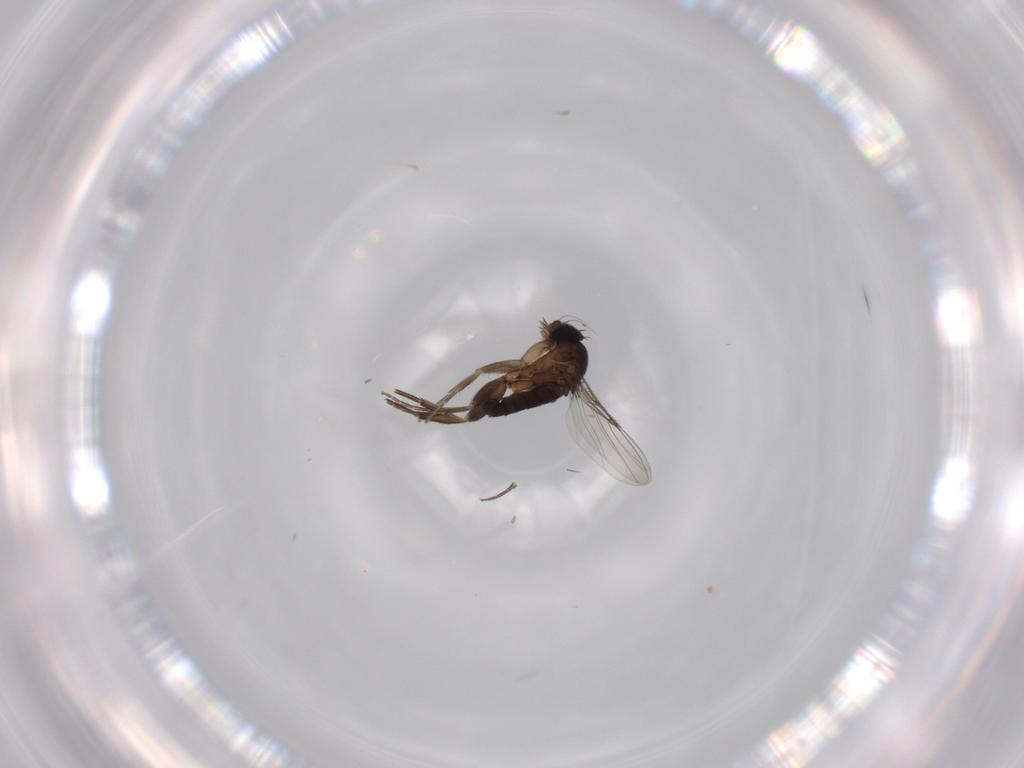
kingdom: Animalia
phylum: Arthropoda
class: Insecta
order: Diptera
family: Phoridae
